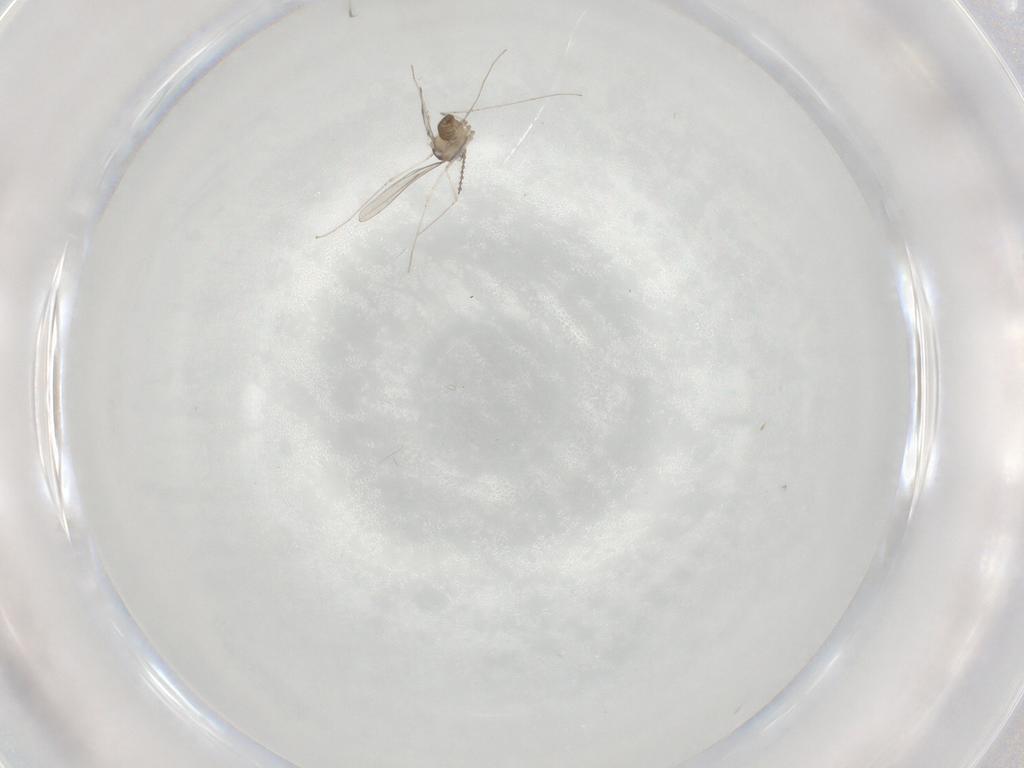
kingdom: Animalia
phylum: Arthropoda
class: Insecta
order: Diptera
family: Cecidomyiidae
